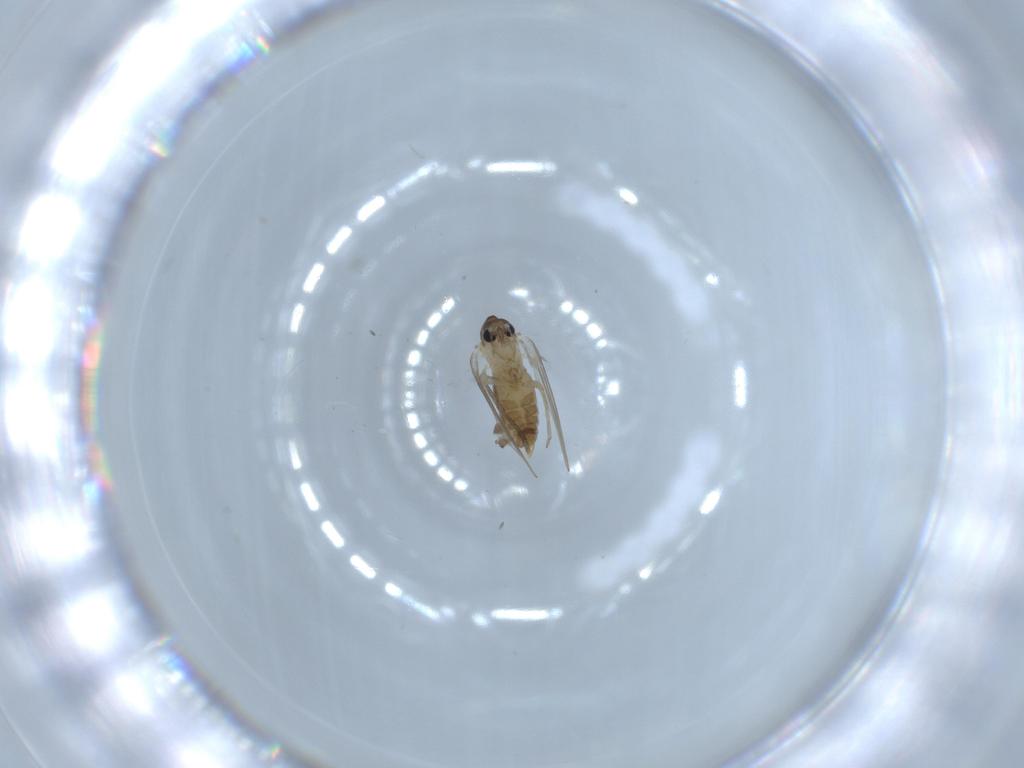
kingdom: Animalia
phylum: Arthropoda
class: Insecta
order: Diptera
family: Psychodidae
